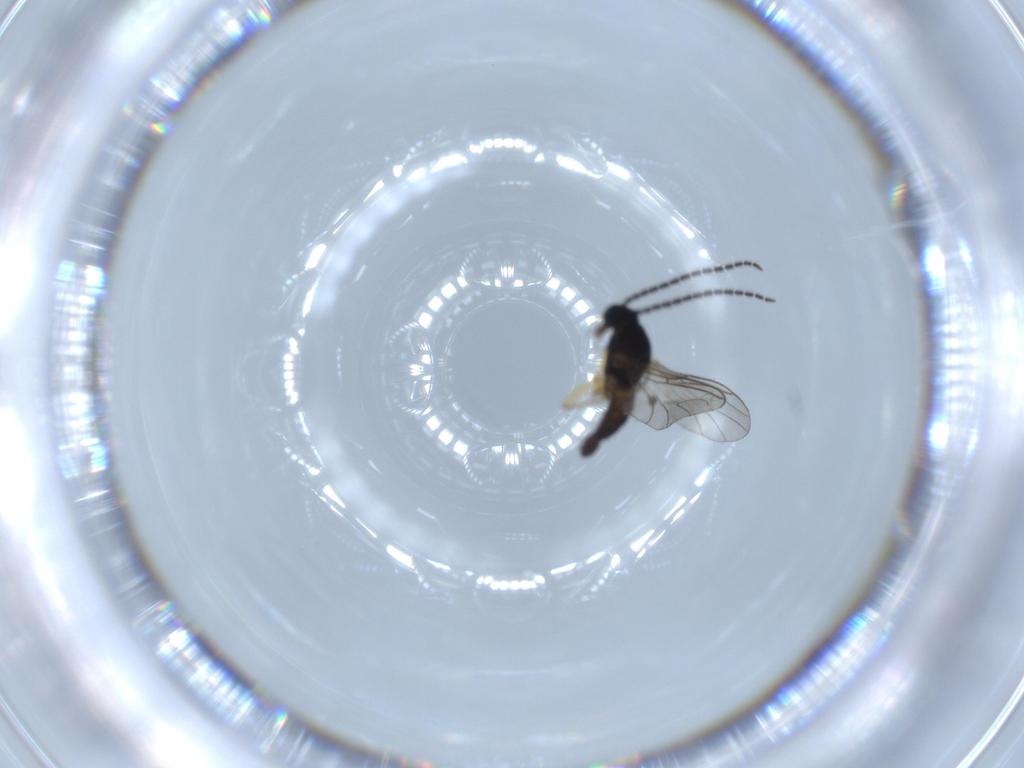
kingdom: Animalia
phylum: Arthropoda
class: Insecta
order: Diptera
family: Sciaridae
